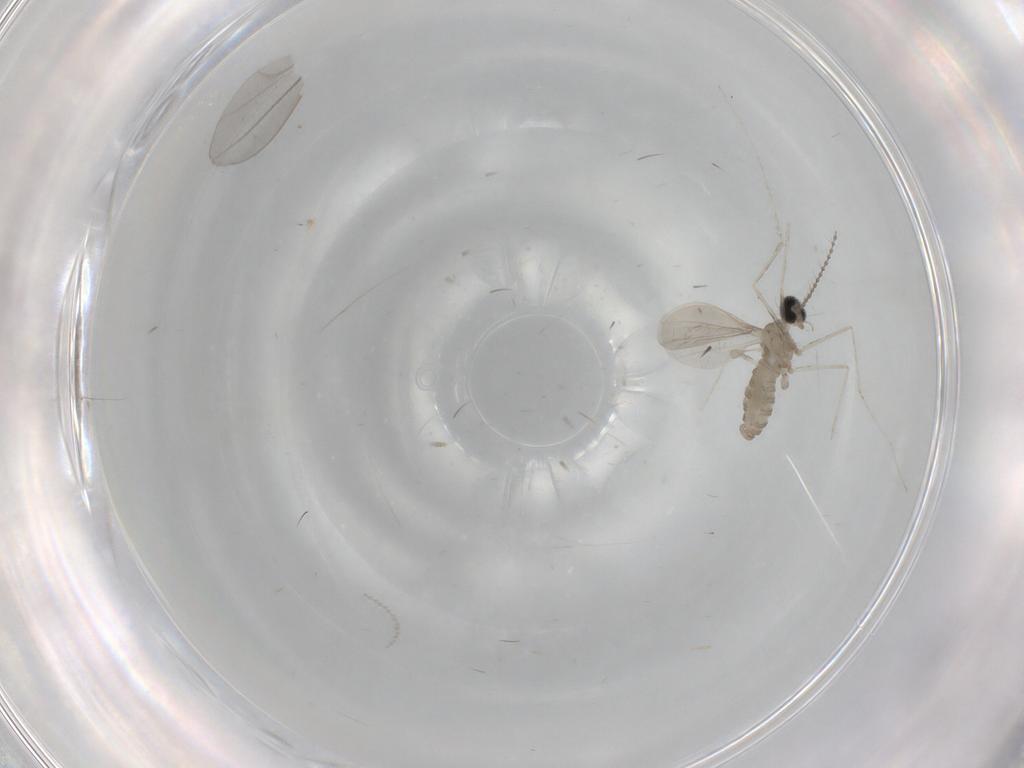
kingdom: Animalia
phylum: Arthropoda
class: Insecta
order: Diptera
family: Cecidomyiidae
